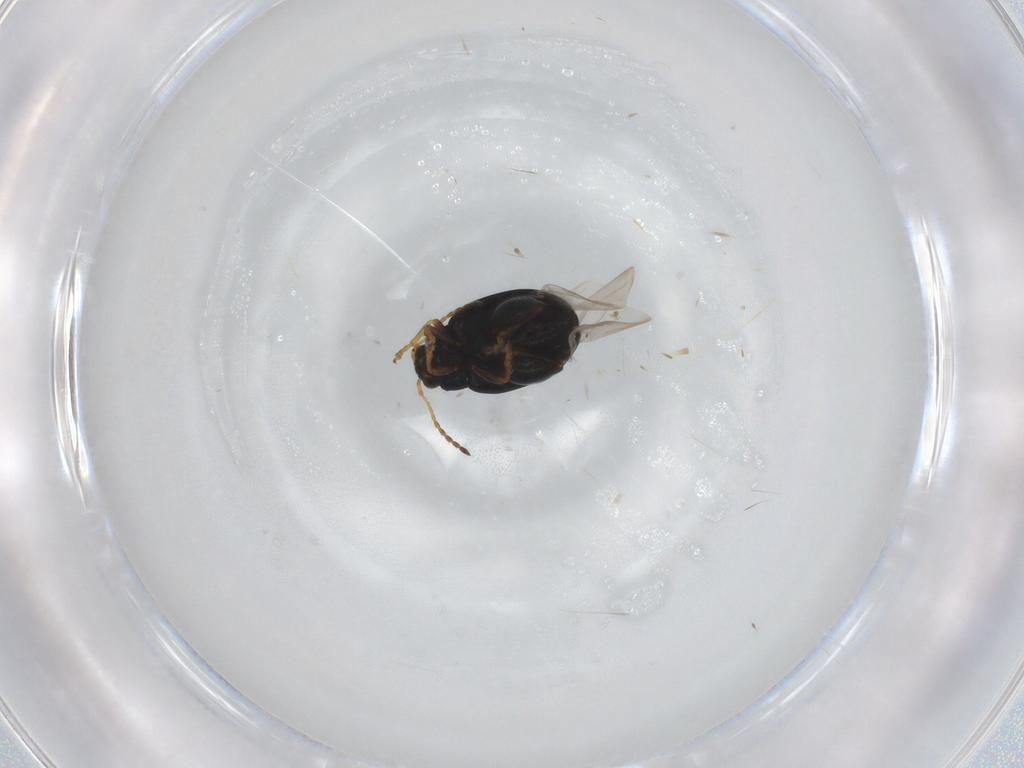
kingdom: Animalia
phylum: Arthropoda
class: Insecta
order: Coleoptera
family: Chrysomelidae
